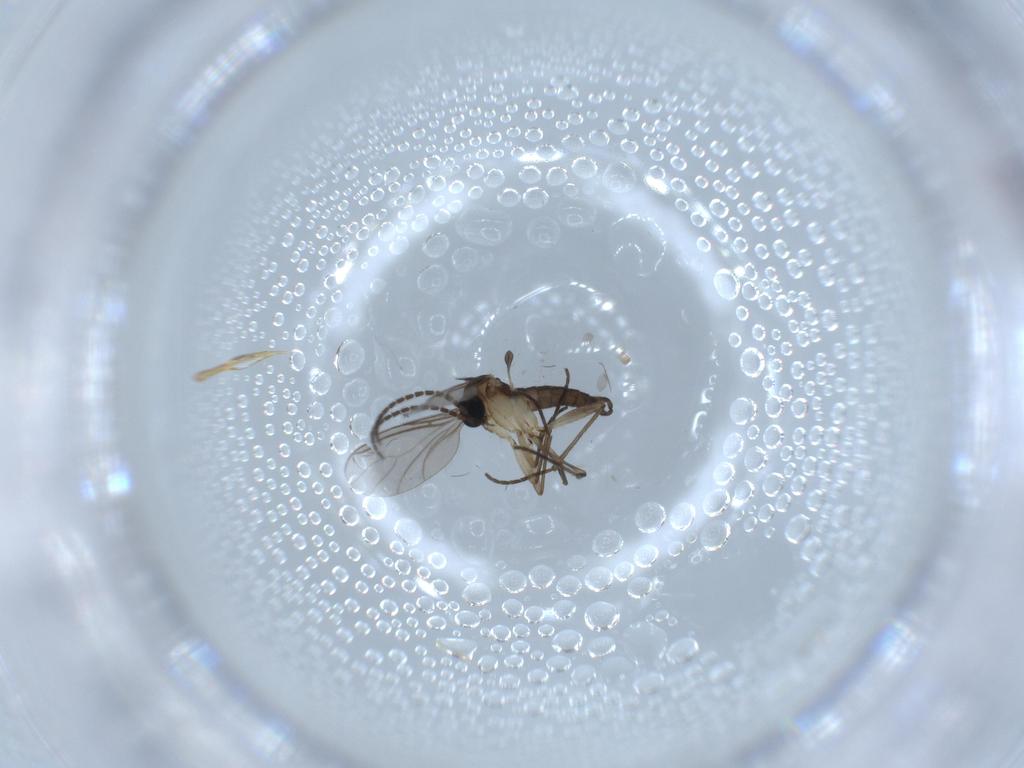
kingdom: Animalia
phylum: Arthropoda
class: Insecta
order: Diptera
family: Sciaridae
